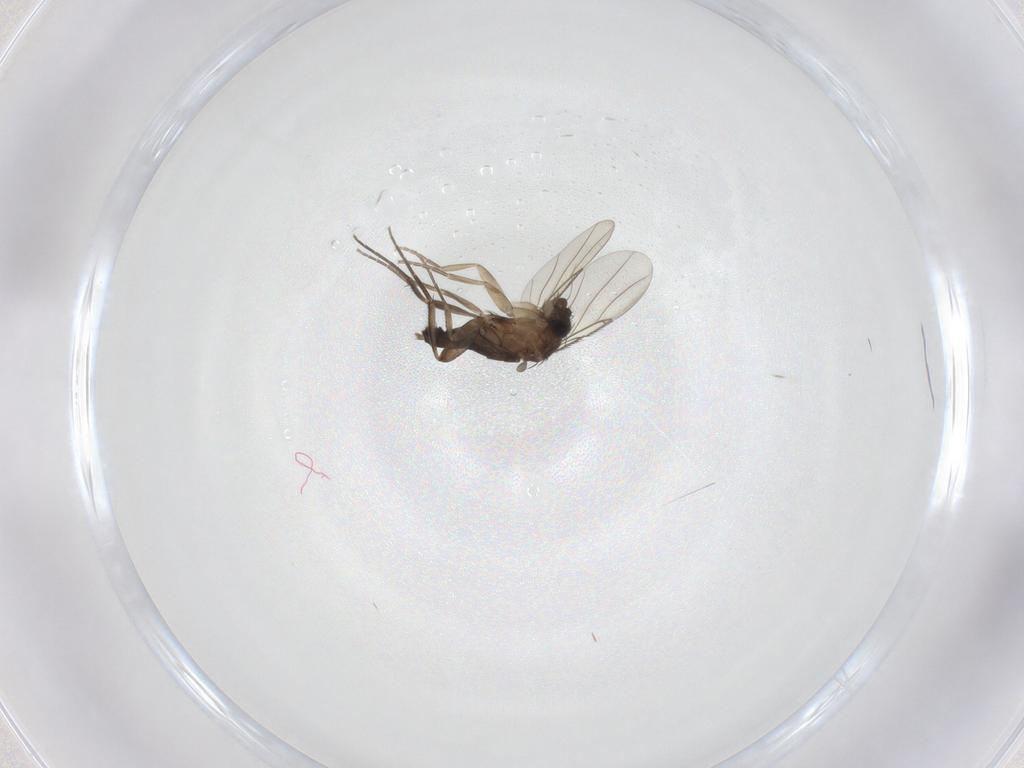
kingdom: Animalia
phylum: Arthropoda
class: Insecta
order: Diptera
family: Phoridae
